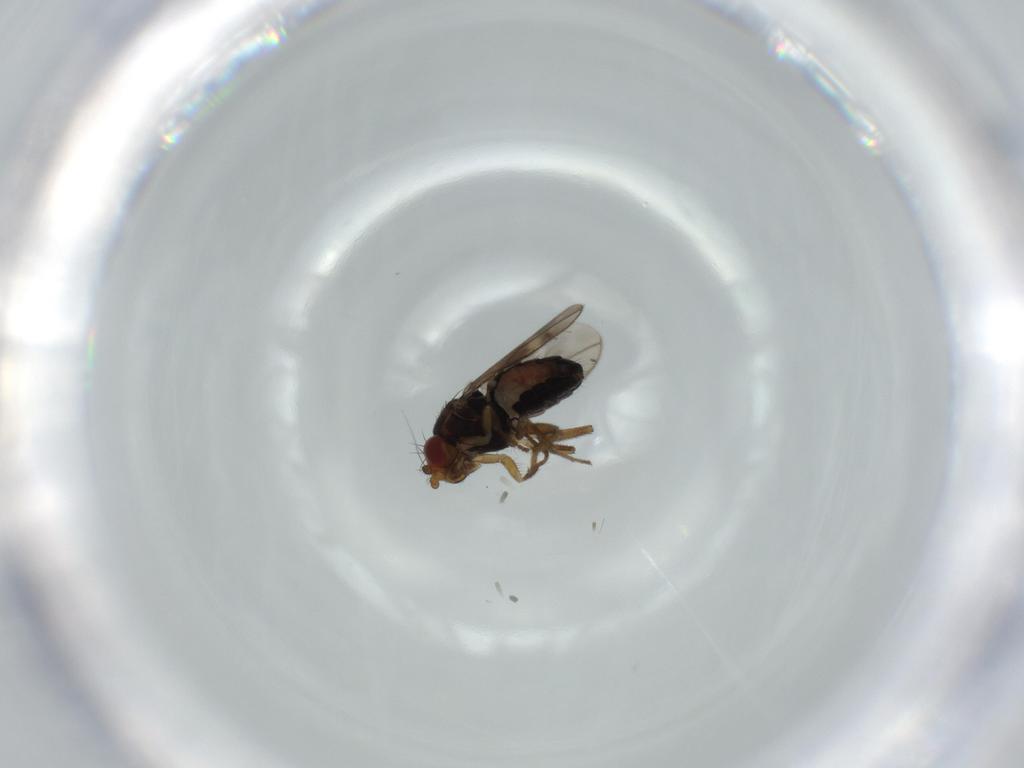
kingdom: Animalia
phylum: Arthropoda
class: Insecta
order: Diptera
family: Sphaeroceridae
